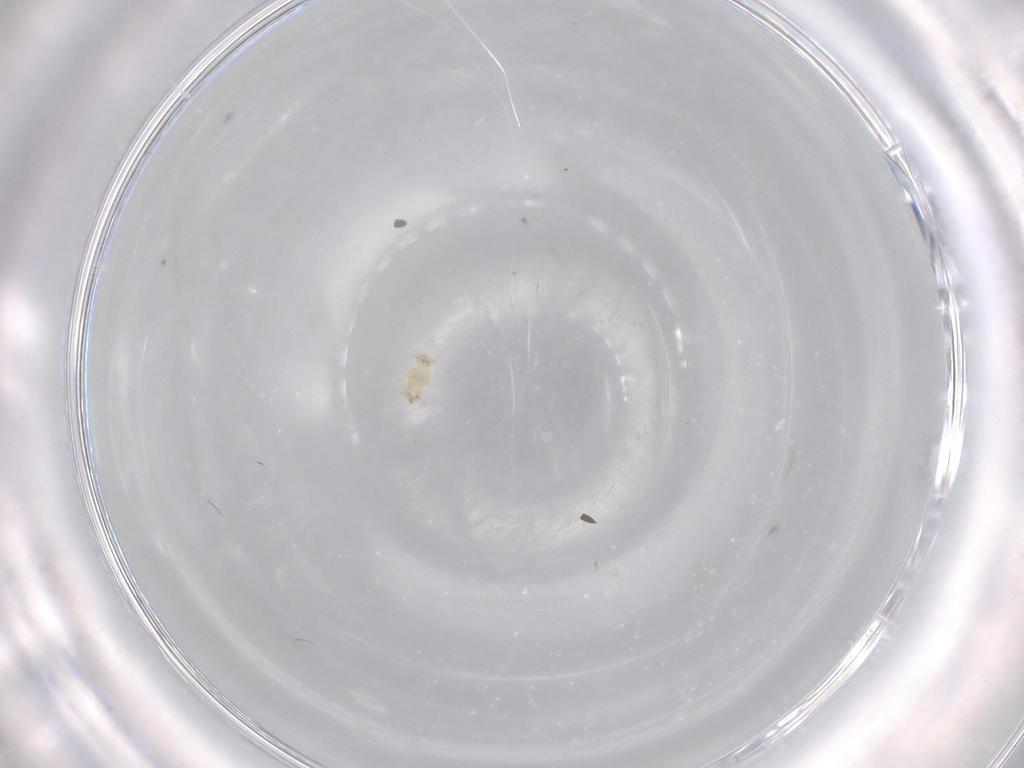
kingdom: Animalia
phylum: Arthropoda
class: Insecta
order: Neuroptera
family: Coniopterygidae
